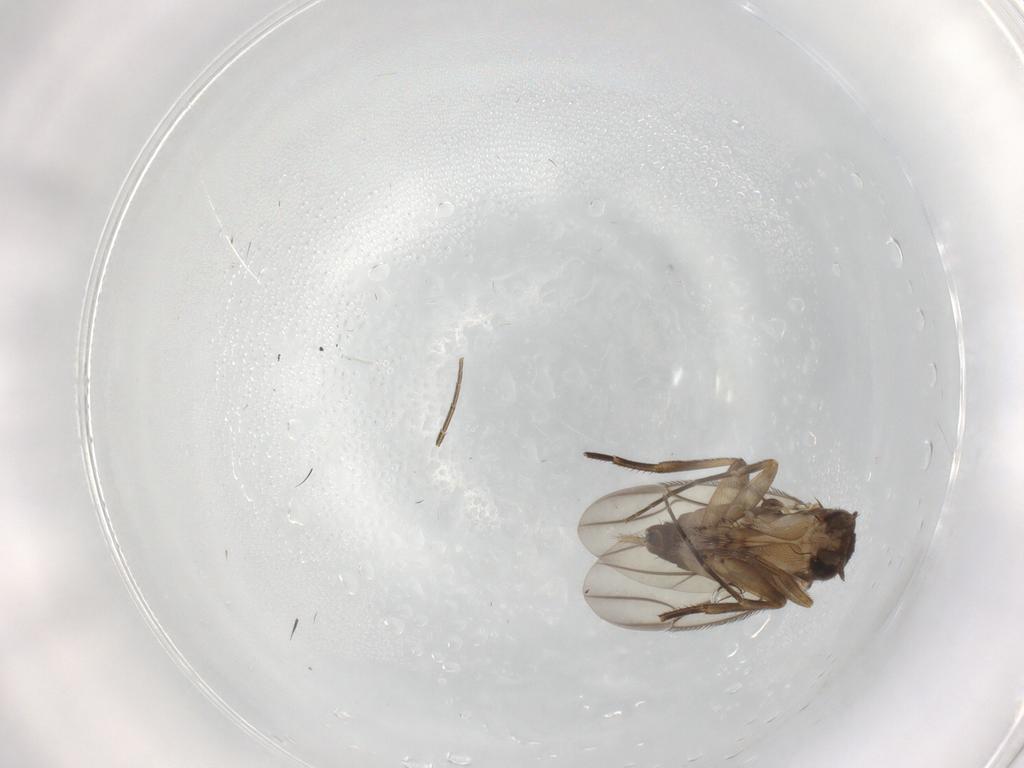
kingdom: Animalia
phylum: Arthropoda
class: Insecta
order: Diptera
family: Phoridae
